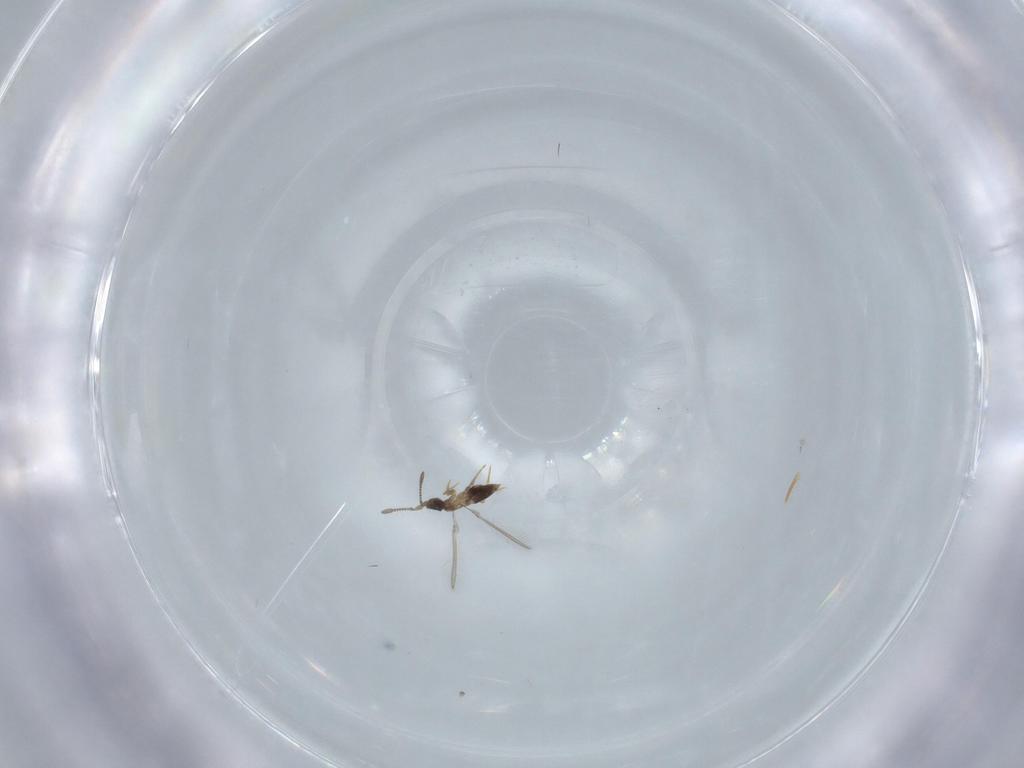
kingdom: Animalia
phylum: Arthropoda
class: Insecta
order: Hymenoptera
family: Mymaridae
